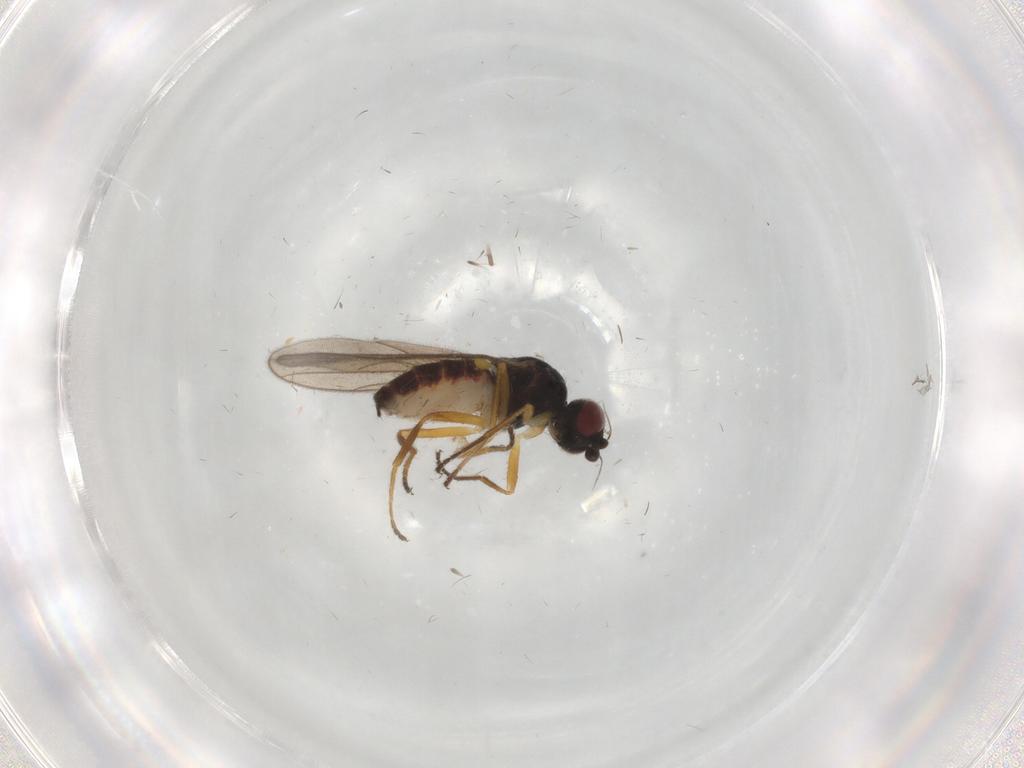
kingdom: Animalia
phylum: Arthropoda
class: Insecta
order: Diptera
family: Chloropidae
